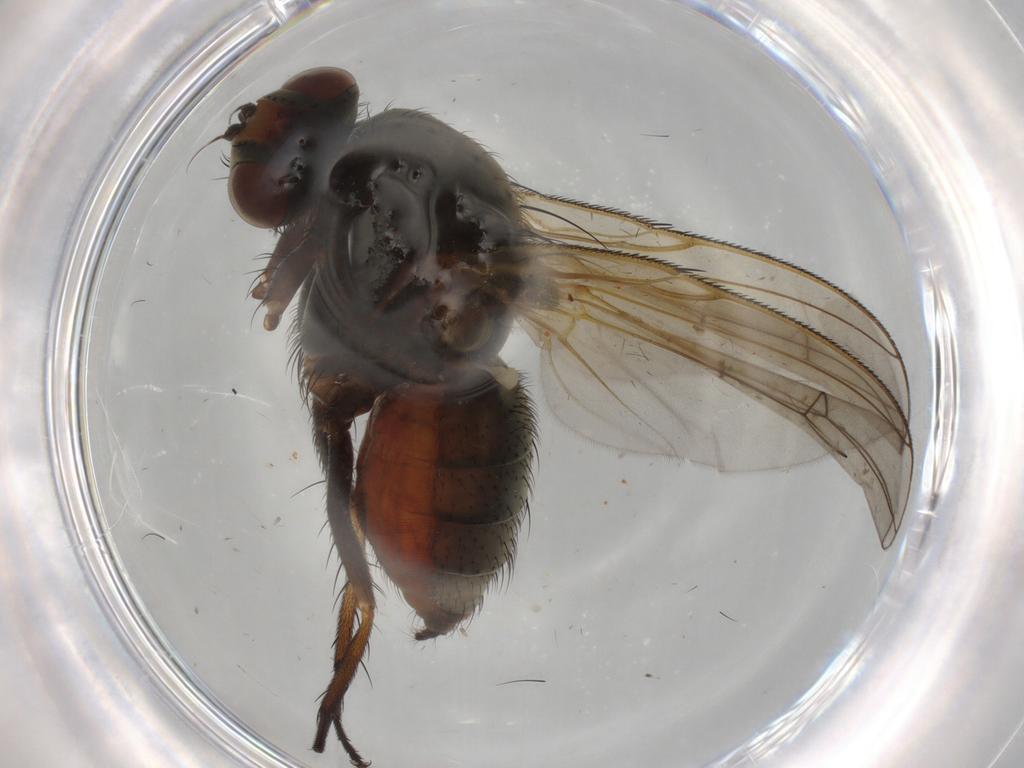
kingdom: Animalia
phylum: Arthropoda
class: Insecta
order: Diptera
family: Anthomyiidae
